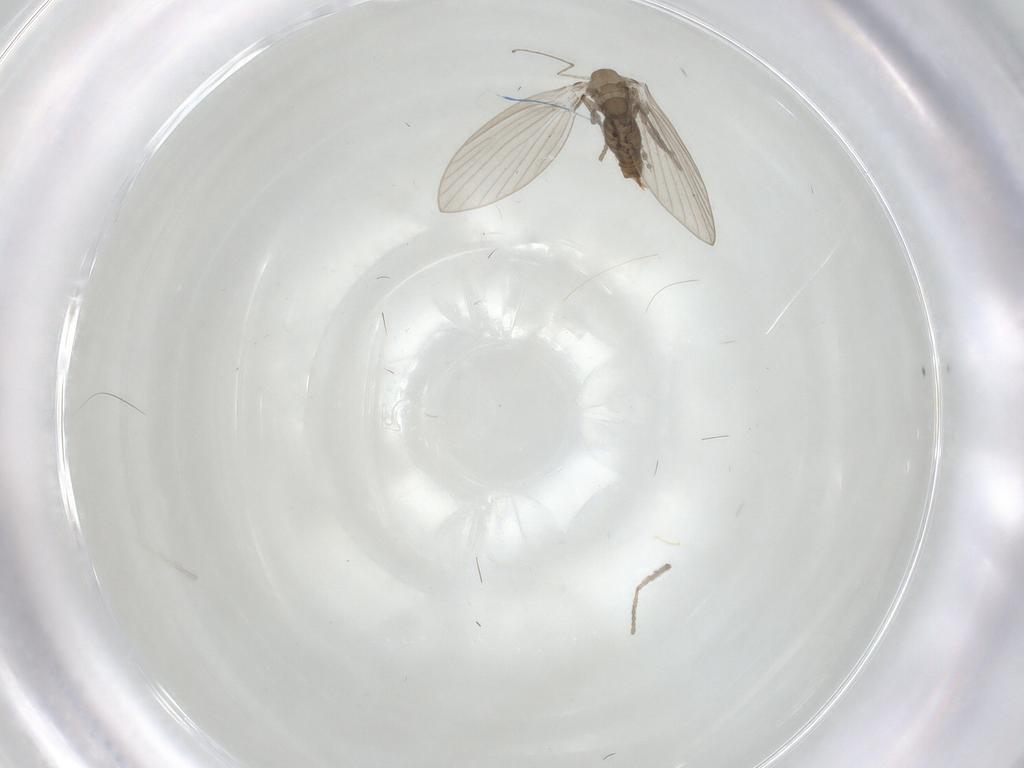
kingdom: Animalia
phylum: Arthropoda
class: Insecta
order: Diptera
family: Psychodidae
